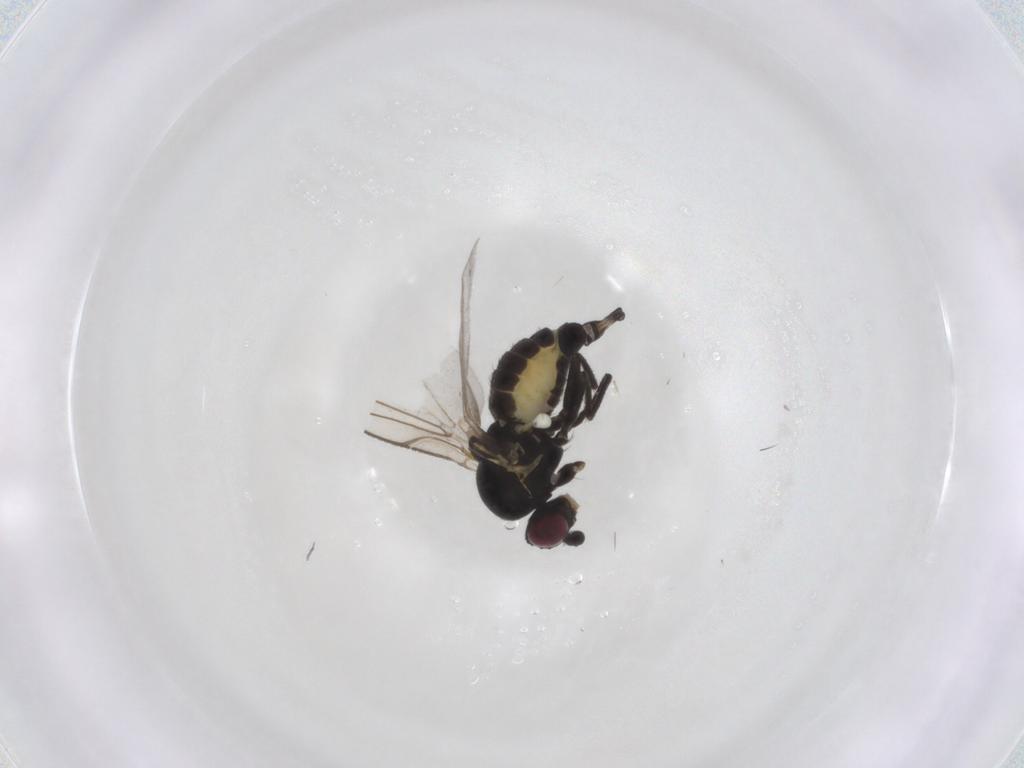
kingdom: Animalia
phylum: Arthropoda
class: Insecta
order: Diptera
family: Agromyzidae
